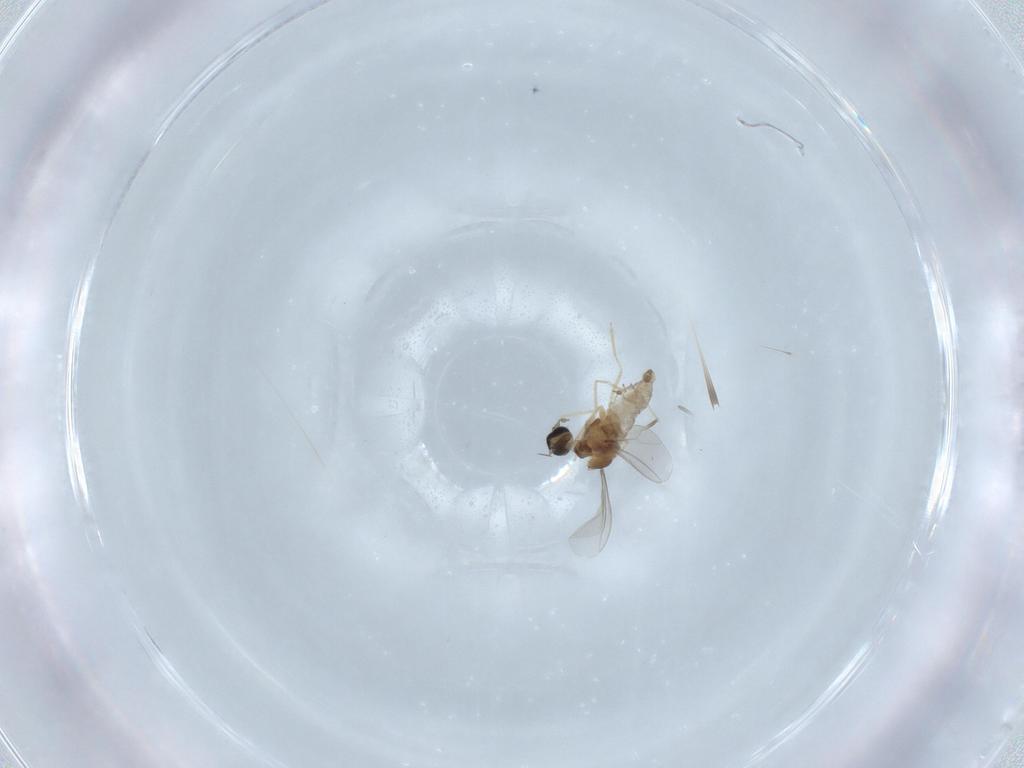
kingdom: Animalia
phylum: Arthropoda
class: Insecta
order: Diptera
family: Cecidomyiidae
